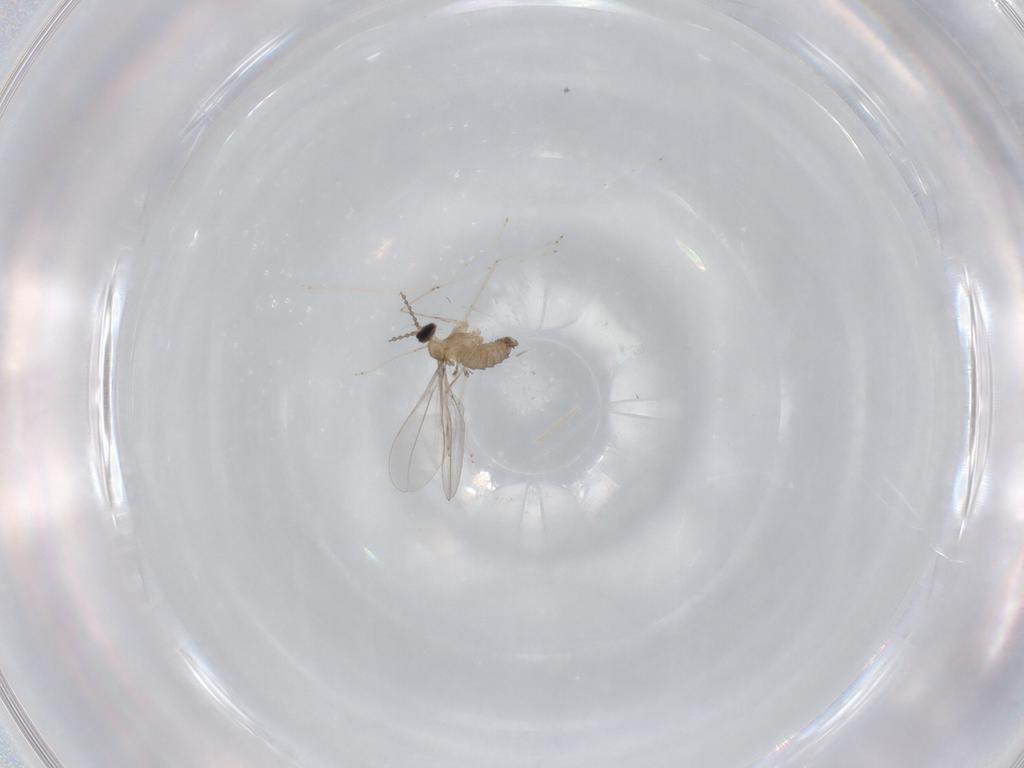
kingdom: Animalia
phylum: Arthropoda
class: Insecta
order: Diptera
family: Cecidomyiidae
